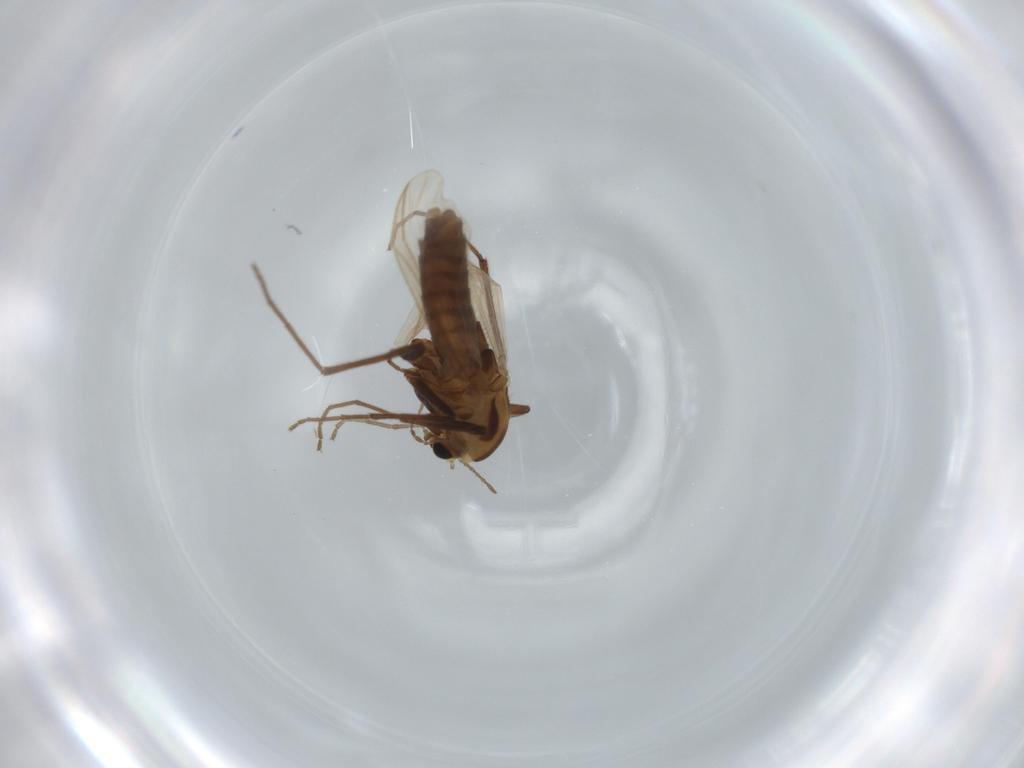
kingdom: Animalia
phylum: Arthropoda
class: Insecta
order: Diptera
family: Chironomidae
